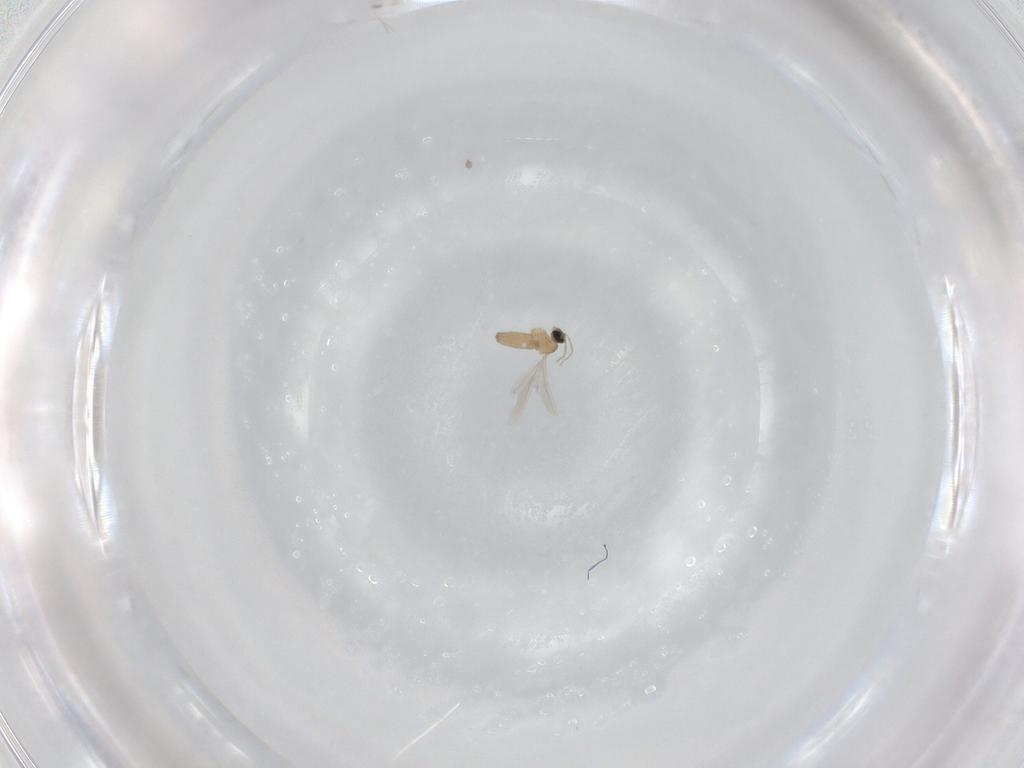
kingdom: Animalia
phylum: Arthropoda
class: Insecta
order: Diptera
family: Cecidomyiidae
